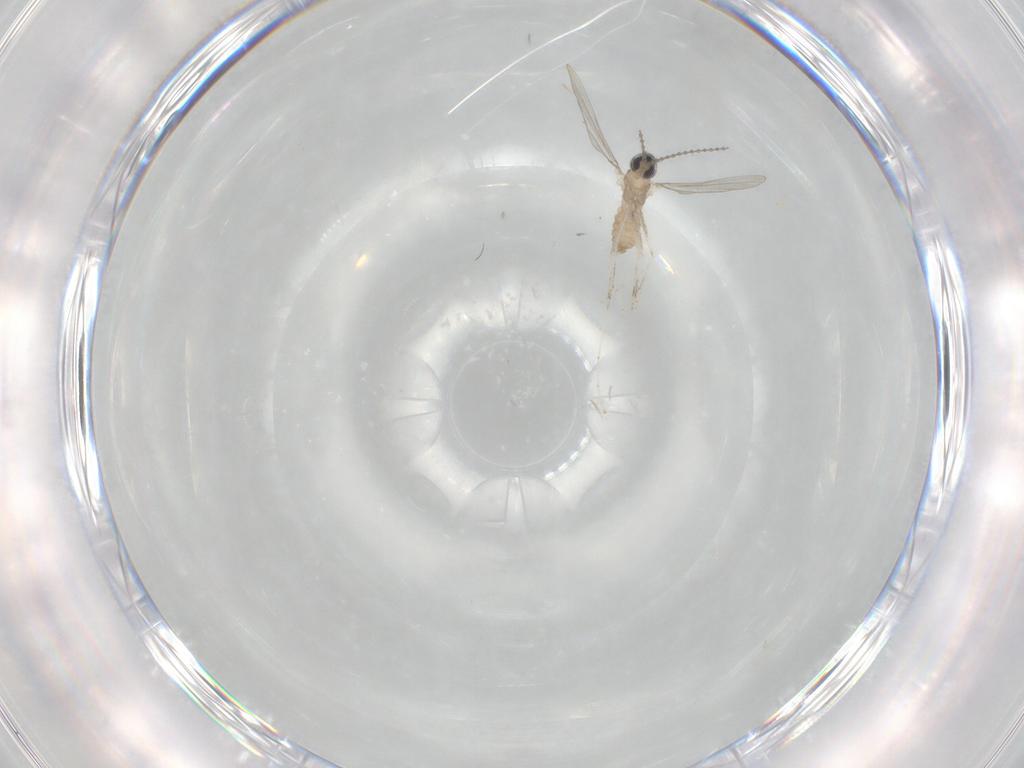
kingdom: Animalia
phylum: Arthropoda
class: Insecta
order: Diptera
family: Cecidomyiidae
